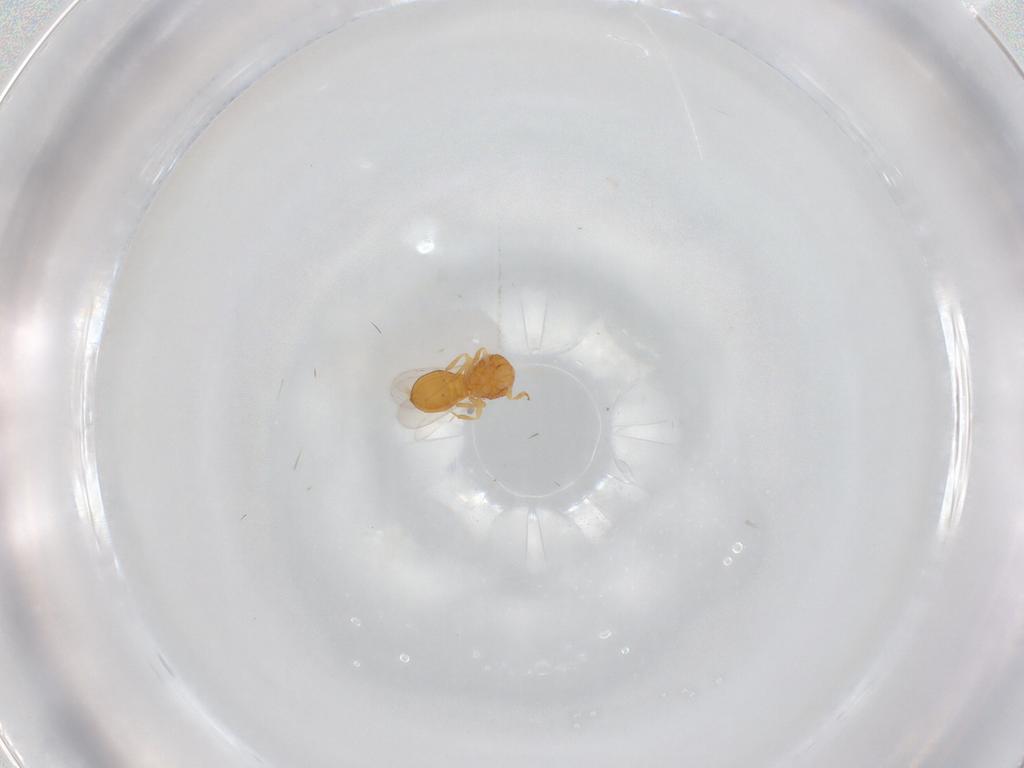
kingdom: Animalia
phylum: Arthropoda
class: Insecta
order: Hymenoptera
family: Scelionidae
